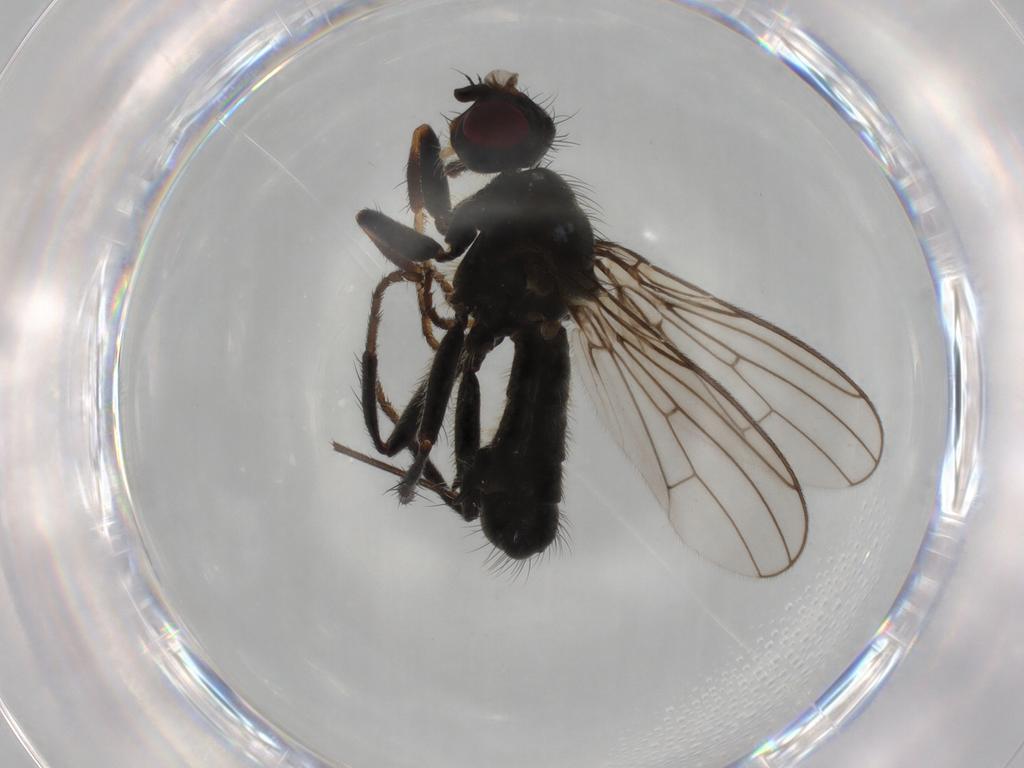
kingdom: Animalia
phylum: Arthropoda
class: Insecta
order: Diptera
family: Scathophagidae
